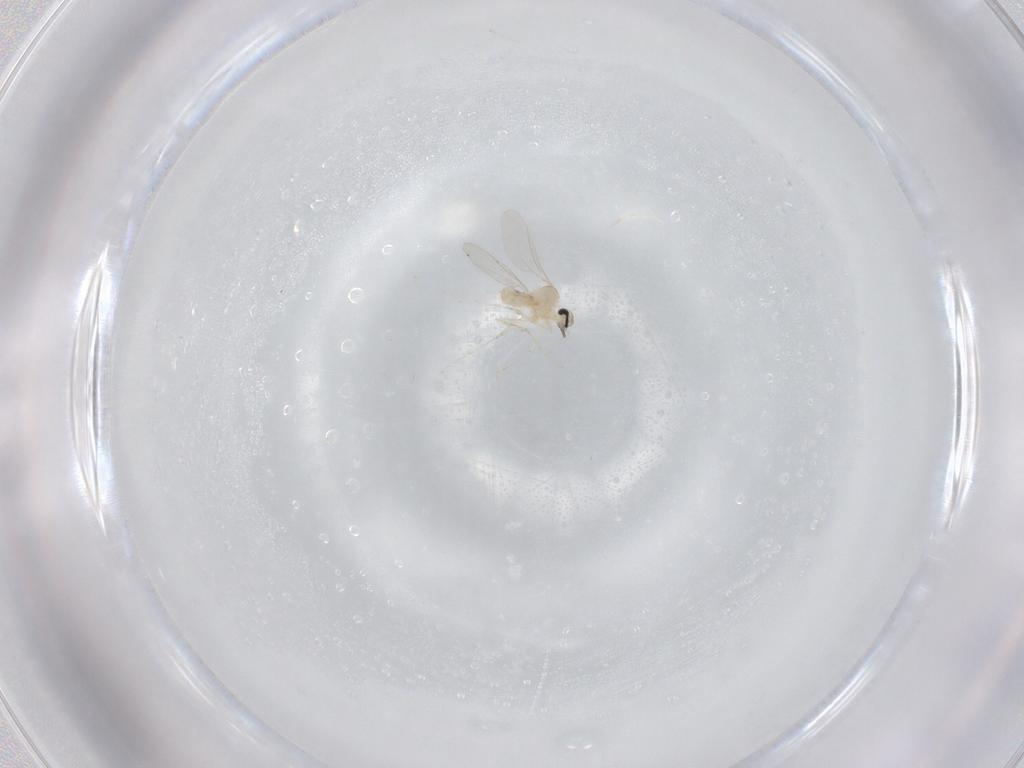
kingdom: Animalia
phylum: Arthropoda
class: Insecta
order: Diptera
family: Cecidomyiidae
